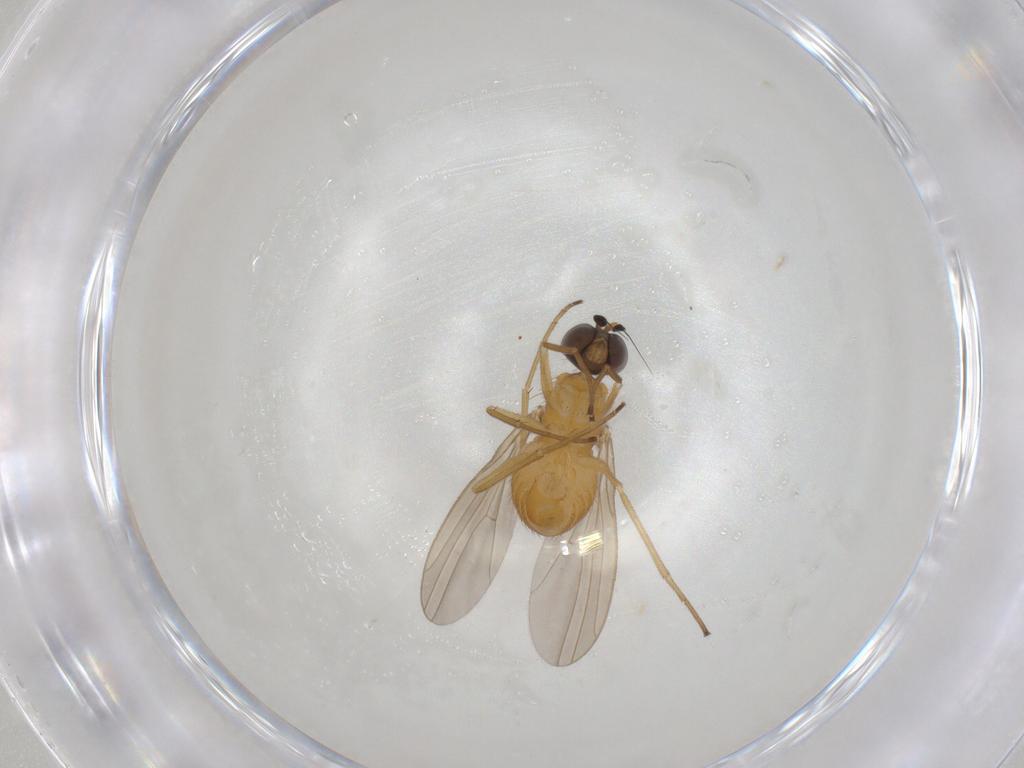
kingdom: Animalia
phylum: Arthropoda
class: Insecta
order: Diptera
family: Dolichopodidae
